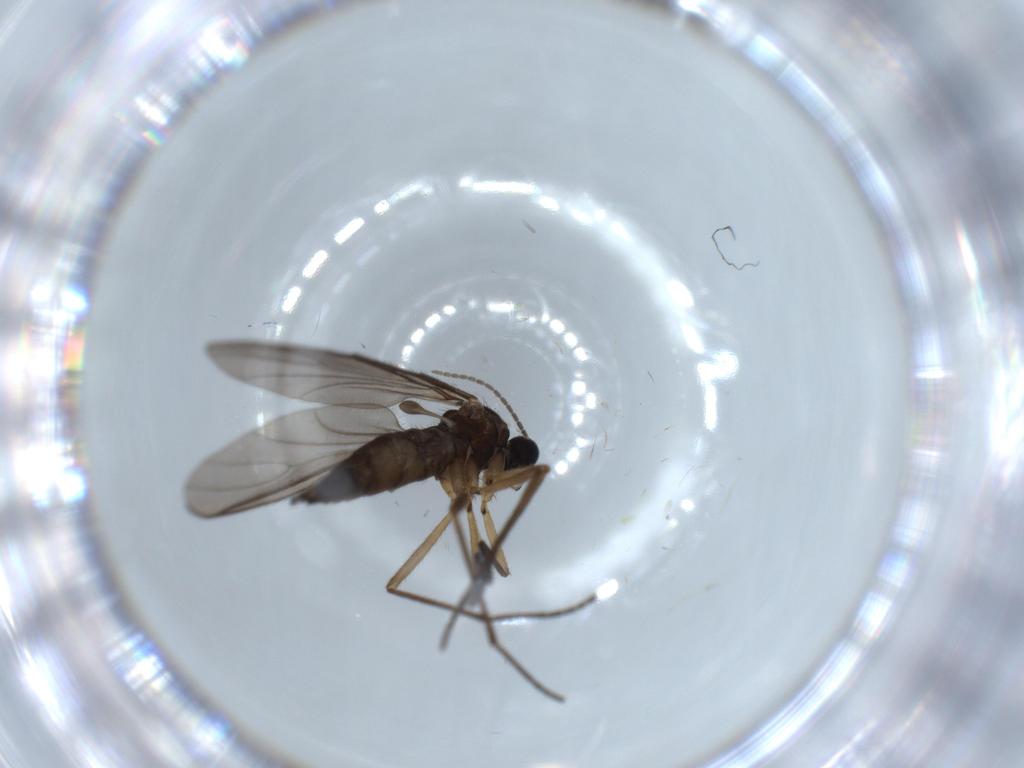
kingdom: Animalia
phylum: Arthropoda
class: Insecta
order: Diptera
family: Sciaridae
